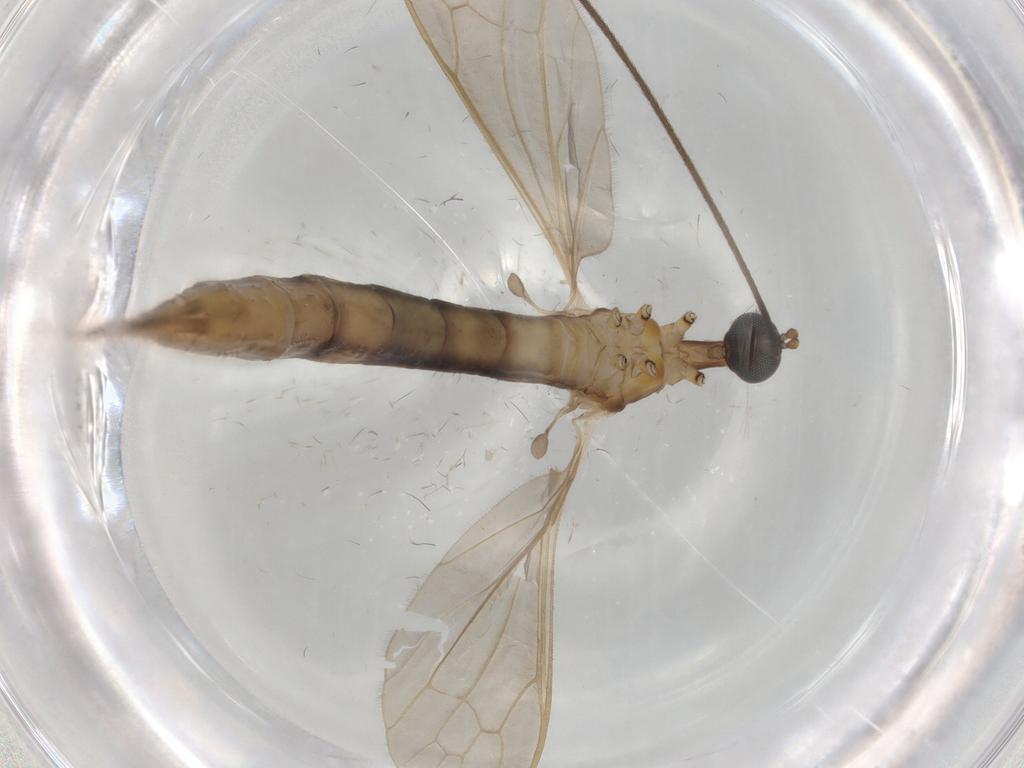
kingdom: Animalia
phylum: Arthropoda
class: Insecta
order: Diptera
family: Limoniidae
